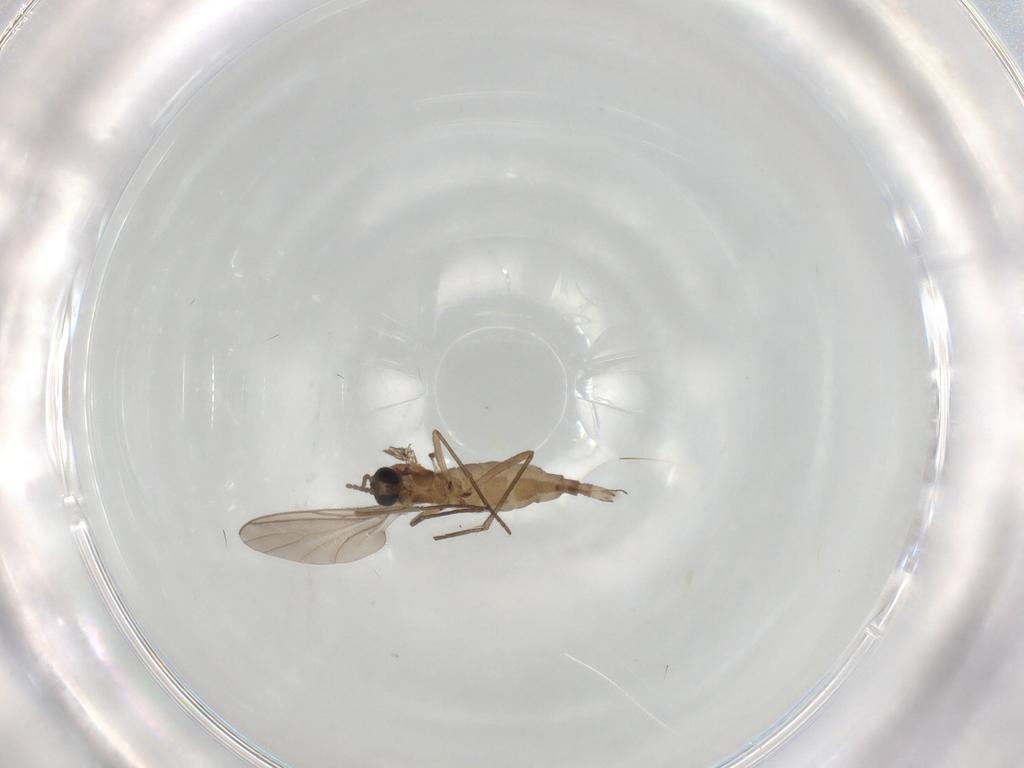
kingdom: Animalia
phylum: Arthropoda
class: Insecta
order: Diptera
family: Sciaridae
